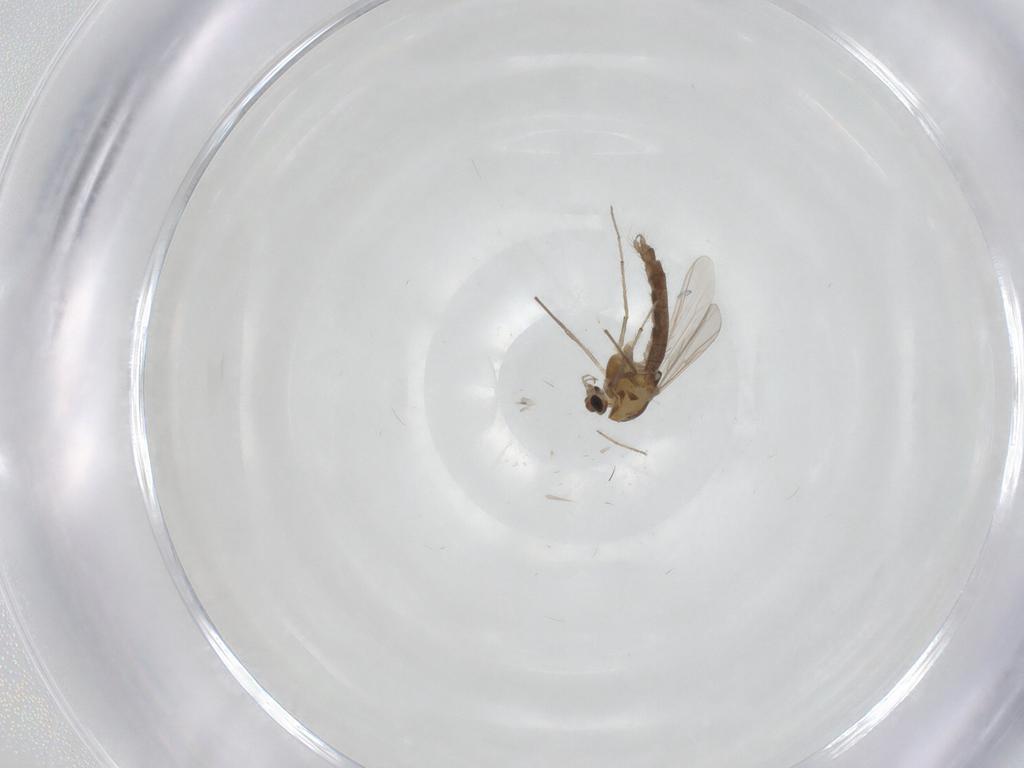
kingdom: Animalia
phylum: Arthropoda
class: Insecta
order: Diptera
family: Chironomidae
